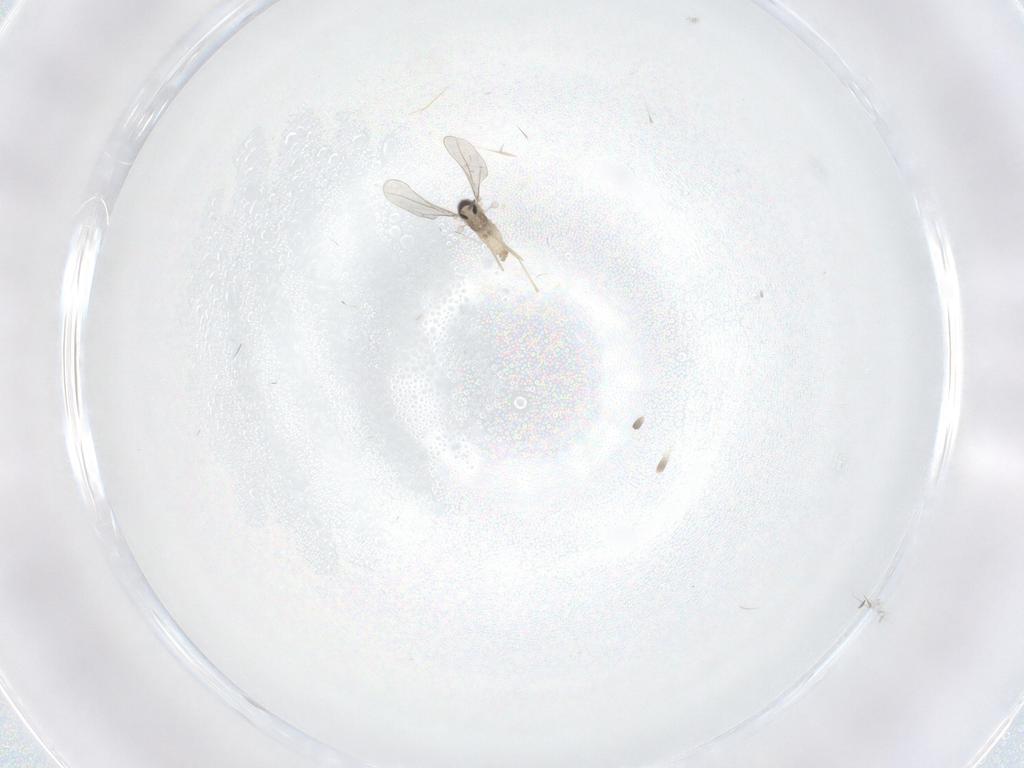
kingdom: Animalia
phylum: Arthropoda
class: Insecta
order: Diptera
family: Cecidomyiidae
